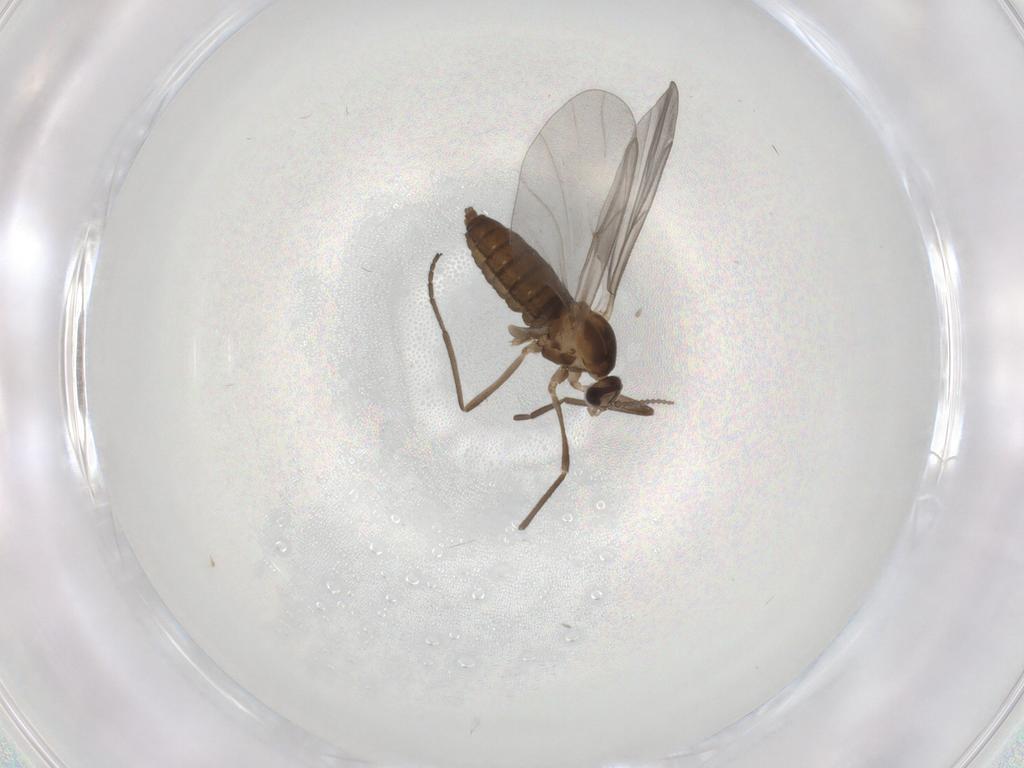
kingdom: Animalia
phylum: Arthropoda
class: Insecta
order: Diptera
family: Cecidomyiidae
